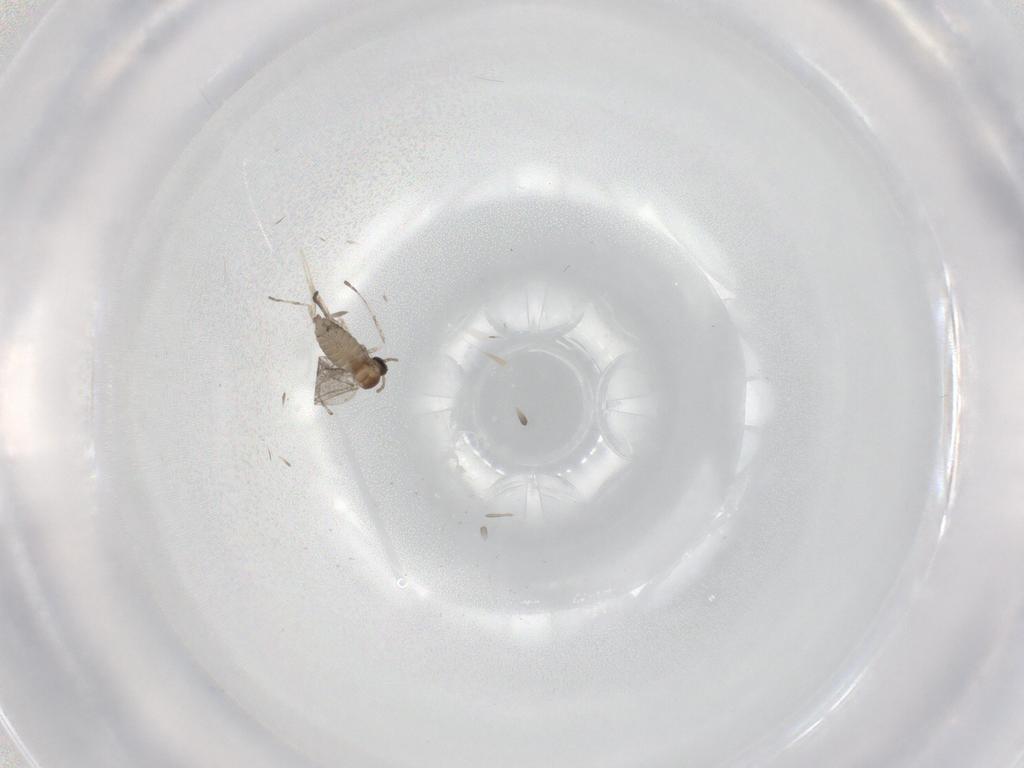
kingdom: Animalia
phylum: Arthropoda
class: Insecta
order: Diptera
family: Cecidomyiidae
